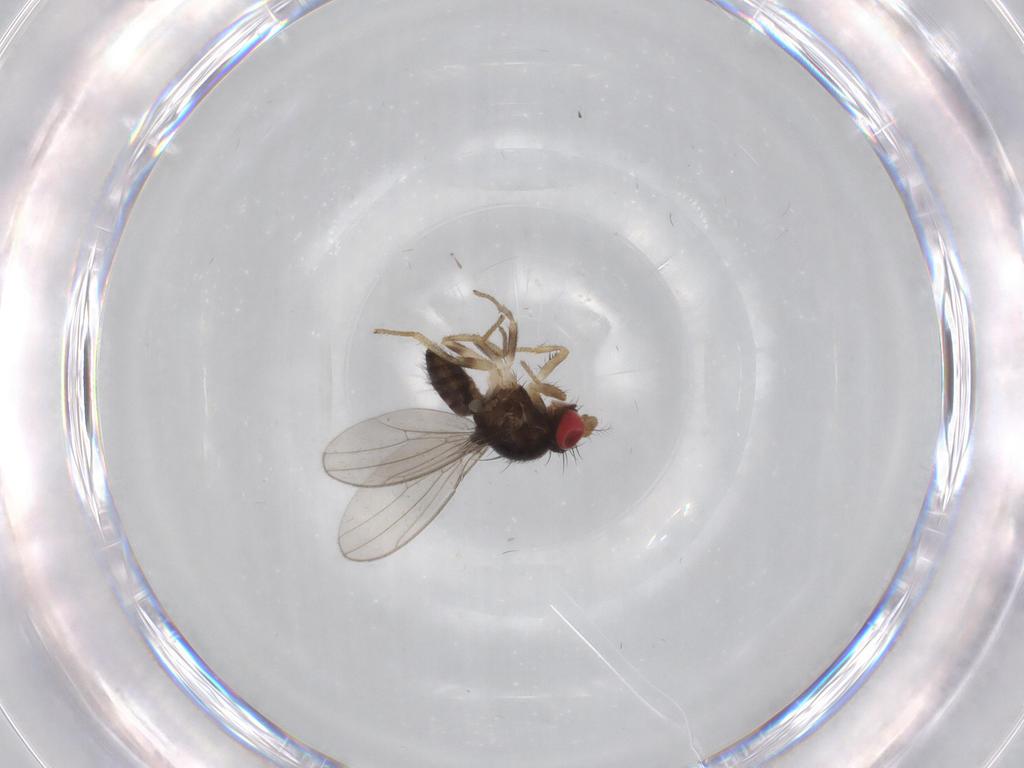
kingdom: Animalia
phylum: Arthropoda
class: Insecta
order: Diptera
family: Drosophilidae
